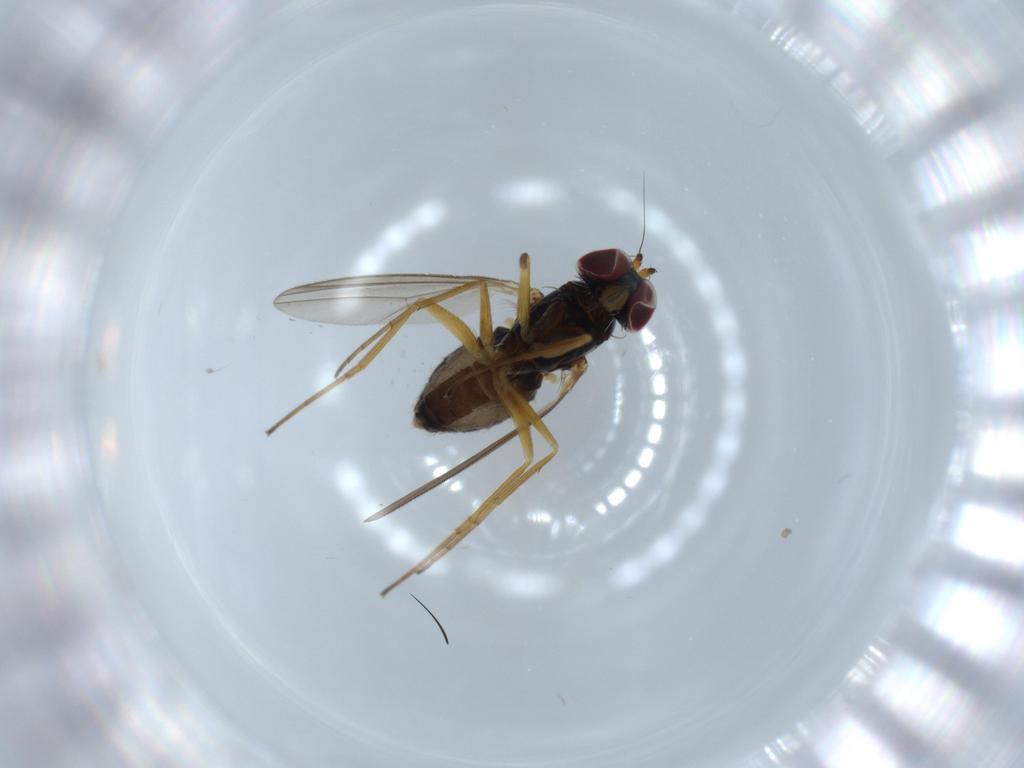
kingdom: Animalia
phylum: Arthropoda
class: Insecta
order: Diptera
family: Dolichopodidae
